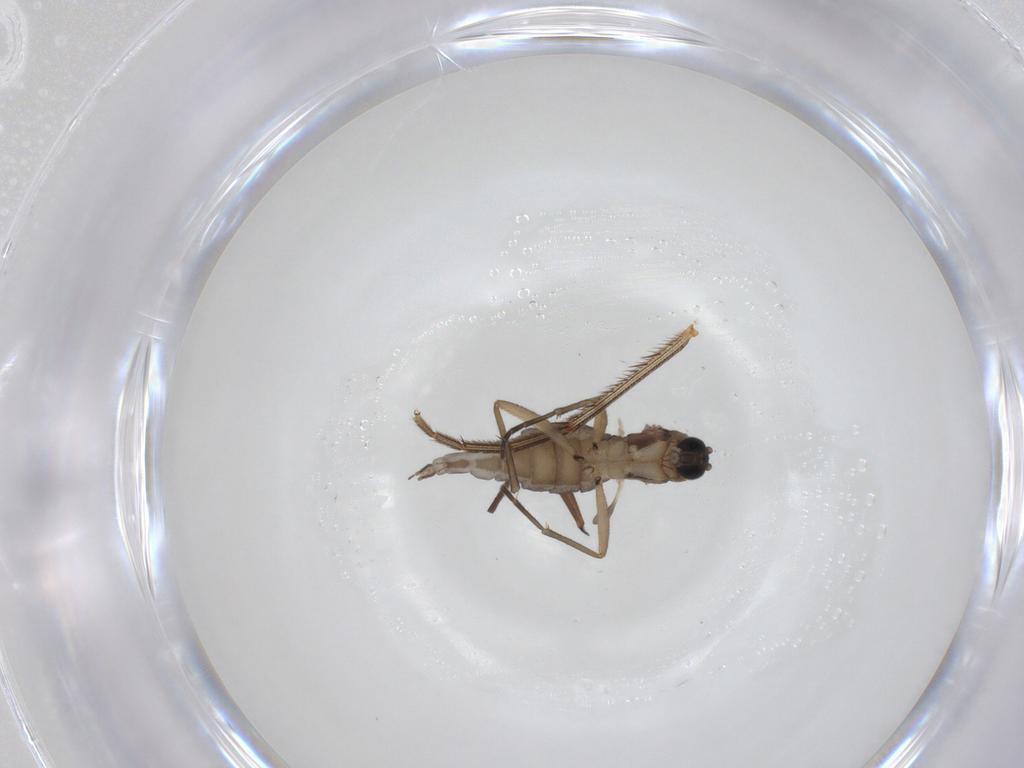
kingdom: Animalia
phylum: Arthropoda
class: Insecta
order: Diptera
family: Sciaridae
